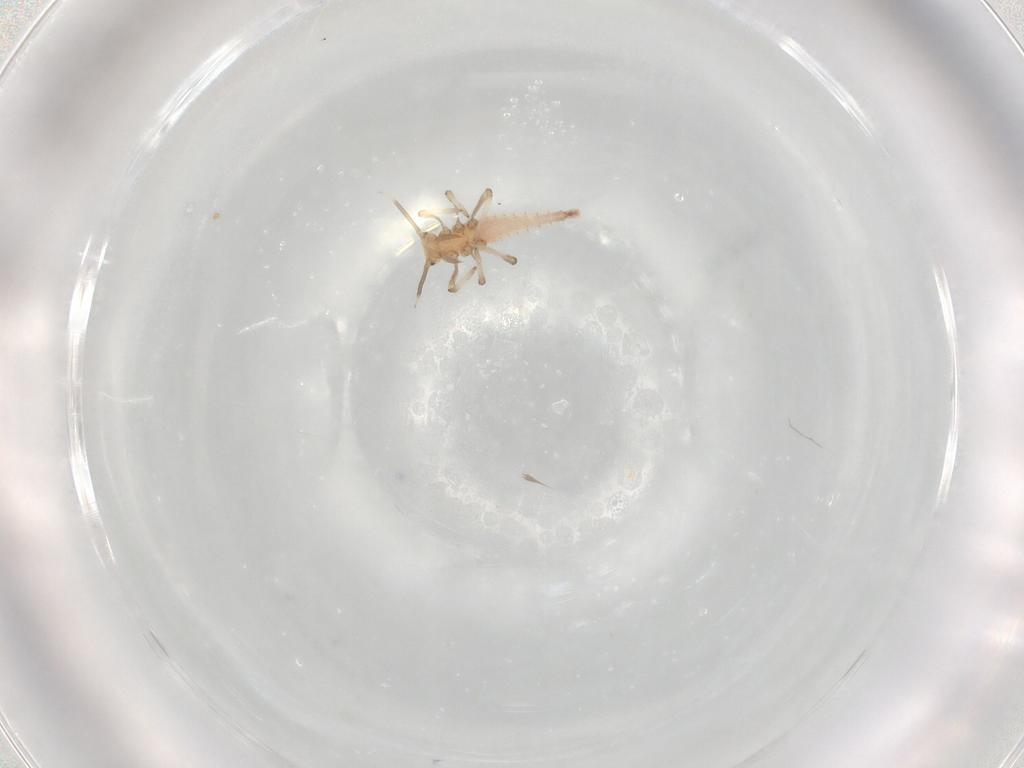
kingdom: Animalia
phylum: Arthropoda
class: Insecta
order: Neuroptera
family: Hemerobiidae
